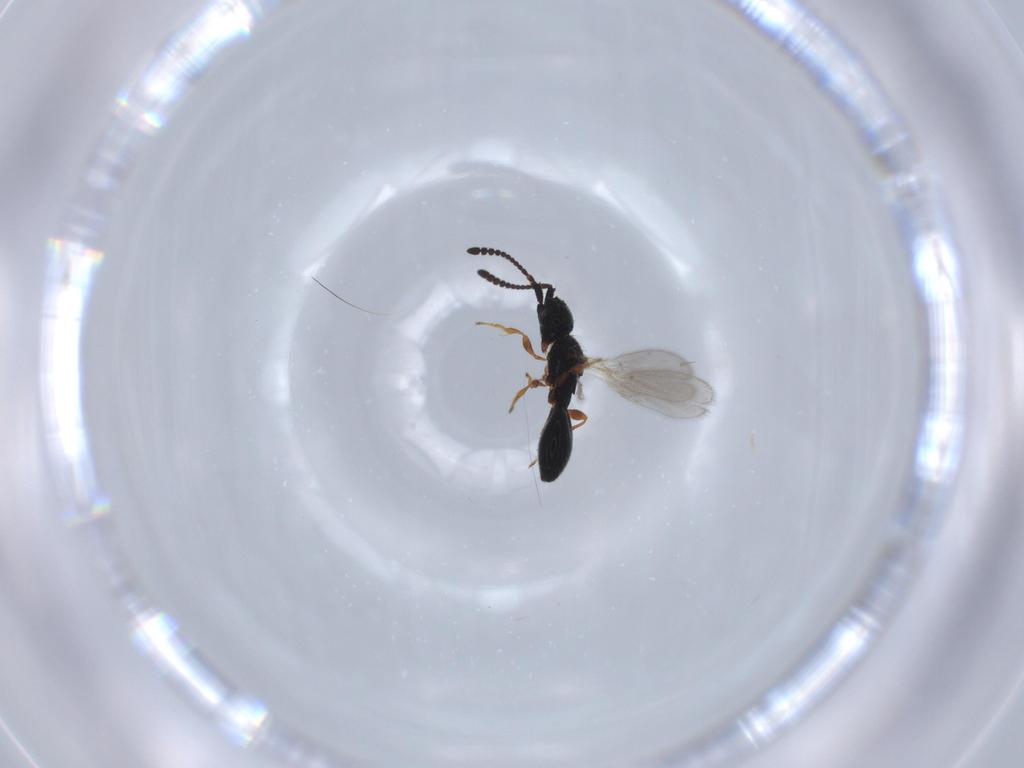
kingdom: Animalia
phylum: Arthropoda
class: Insecta
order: Hymenoptera
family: Diapriidae
